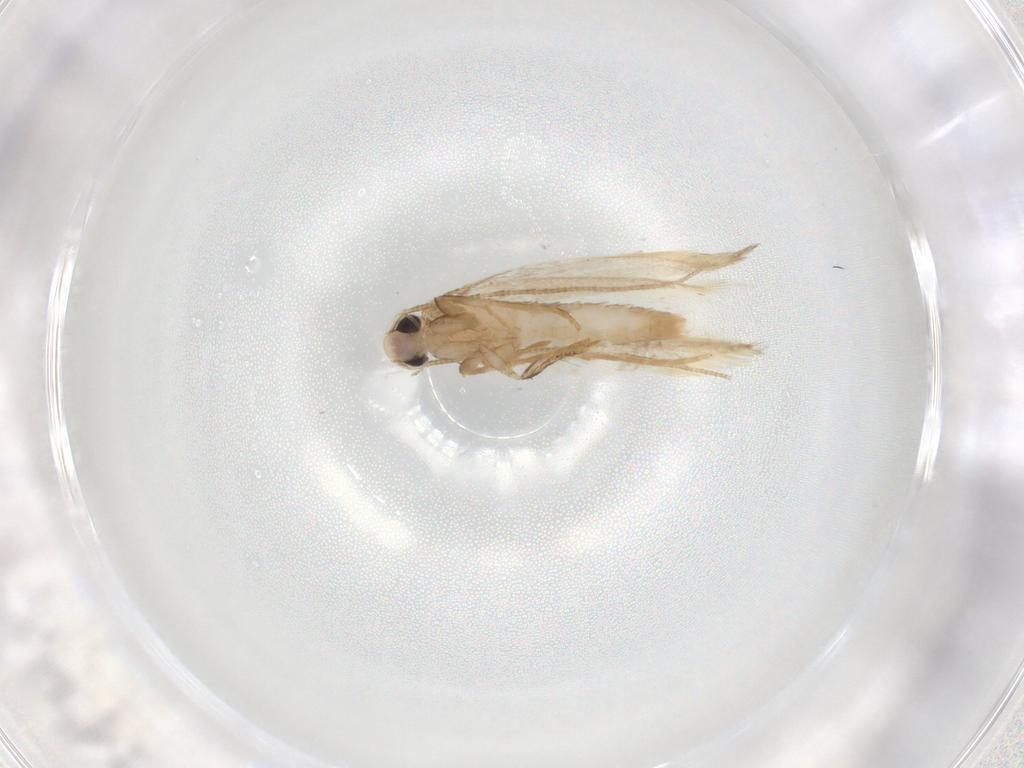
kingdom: Animalia
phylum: Arthropoda
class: Insecta
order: Lepidoptera
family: Tineidae
